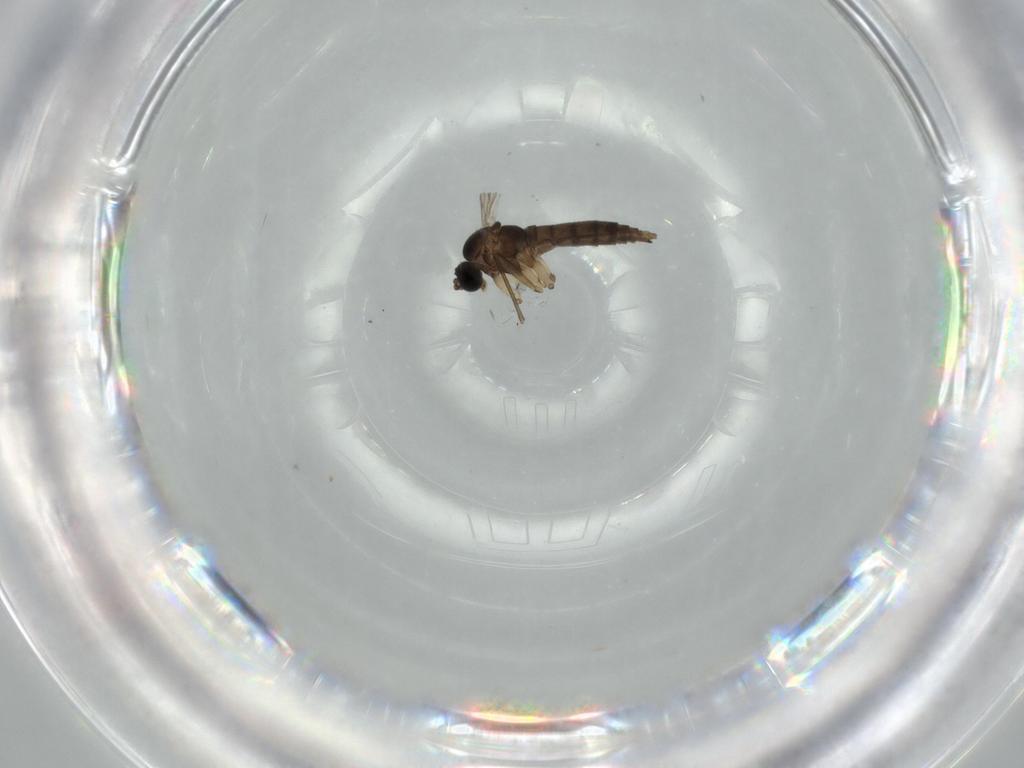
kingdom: Animalia
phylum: Arthropoda
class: Insecta
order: Diptera
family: Sciaridae
